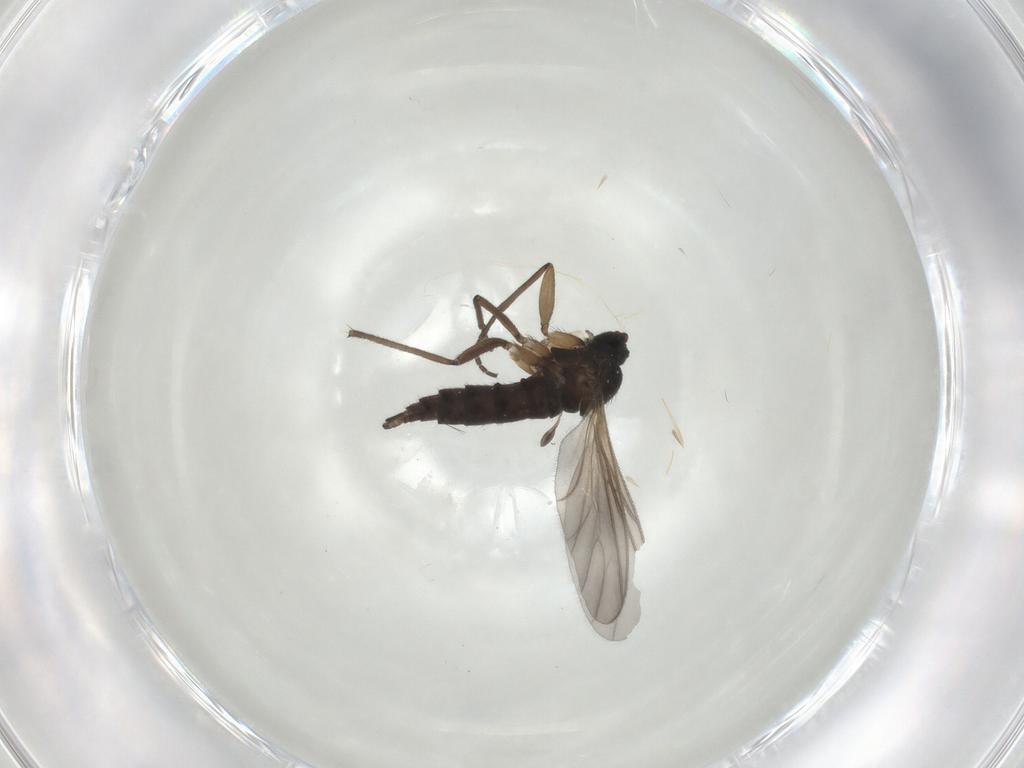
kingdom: Animalia
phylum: Arthropoda
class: Insecta
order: Diptera
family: Sciaridae
